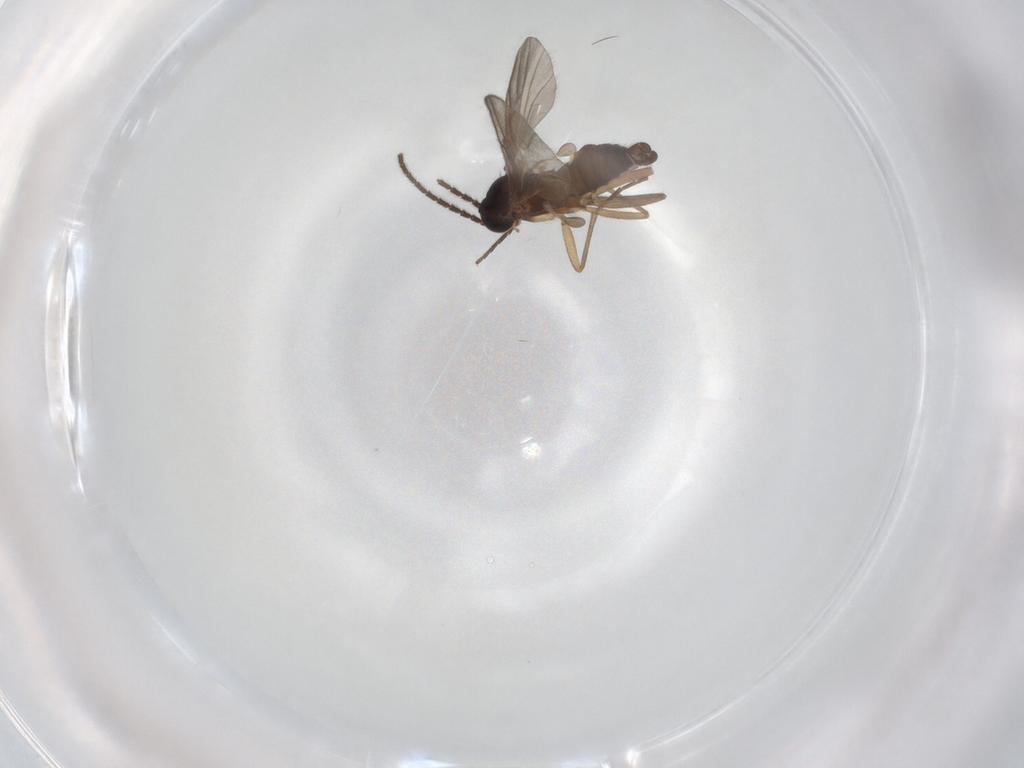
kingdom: Animalia
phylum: Arthropoda
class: Insecta
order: Diptera
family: Sciaridae
